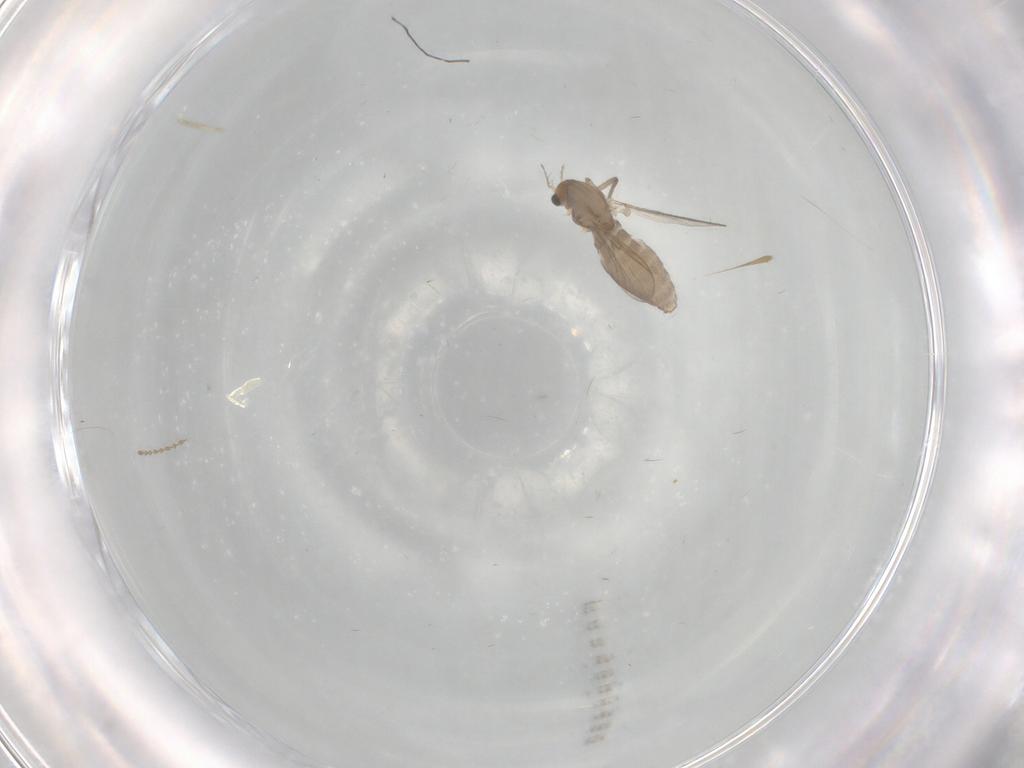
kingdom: Animalia
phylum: Arthropoda
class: Insecta
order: Diptera
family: Chironomidae
